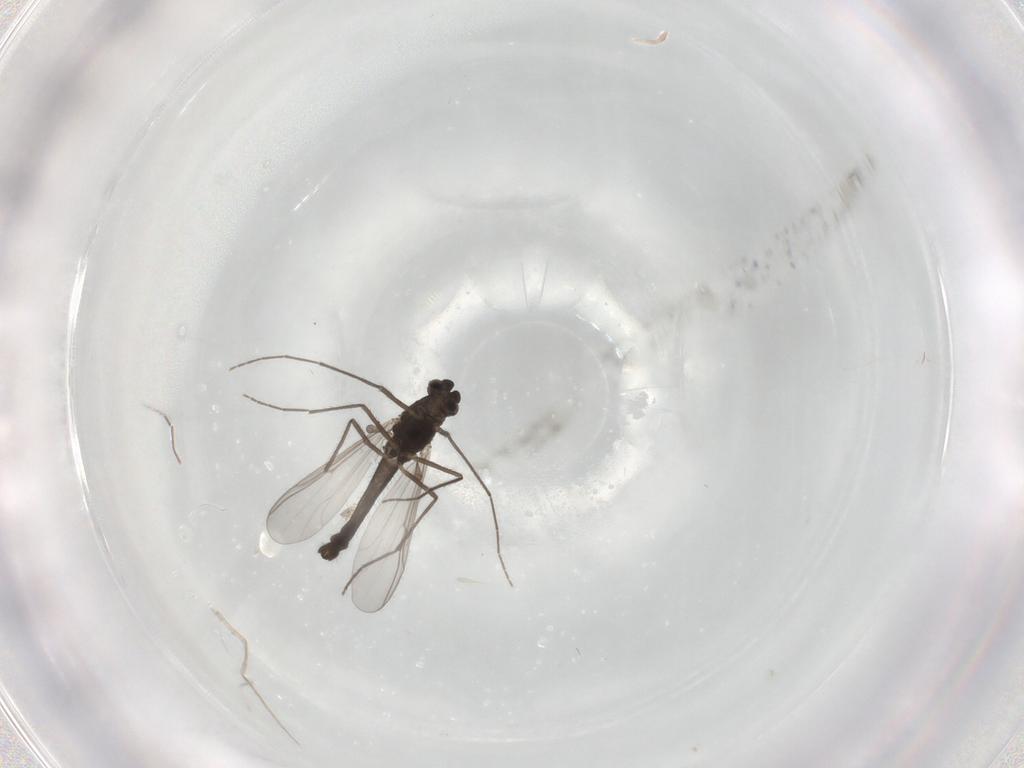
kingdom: Animalia
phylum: Arthropoda
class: Insecta
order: Diptera
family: Chironomidae
